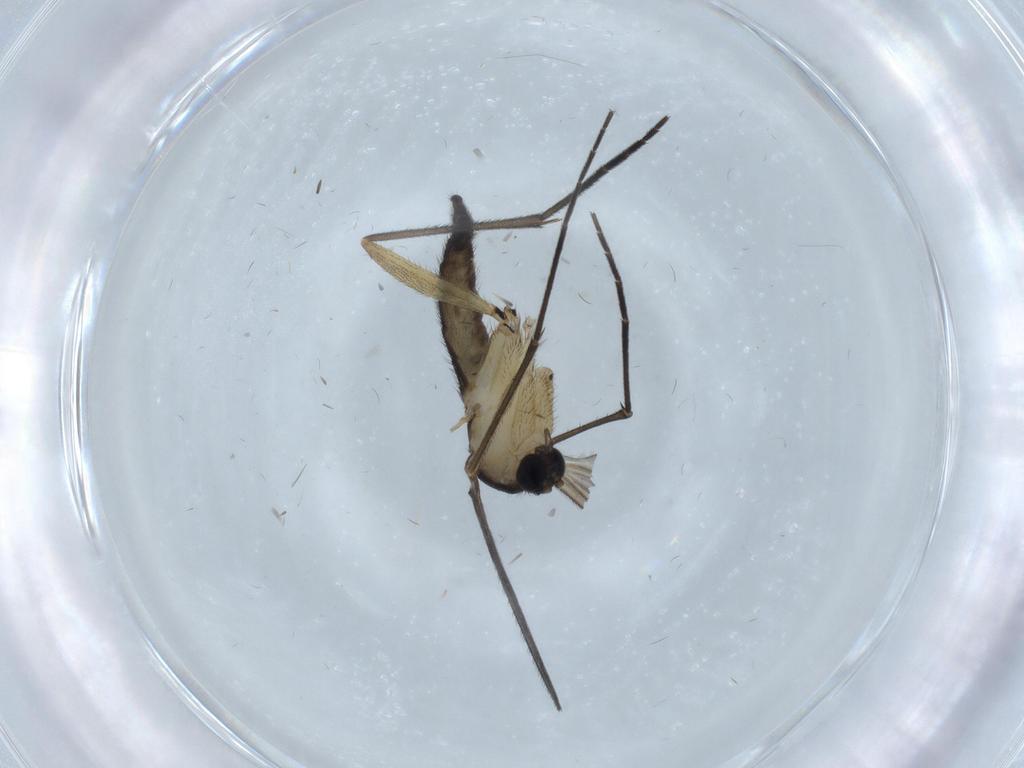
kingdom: Animalia
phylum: Arthropoda
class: Insecta
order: Diptera
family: Sciaridae
